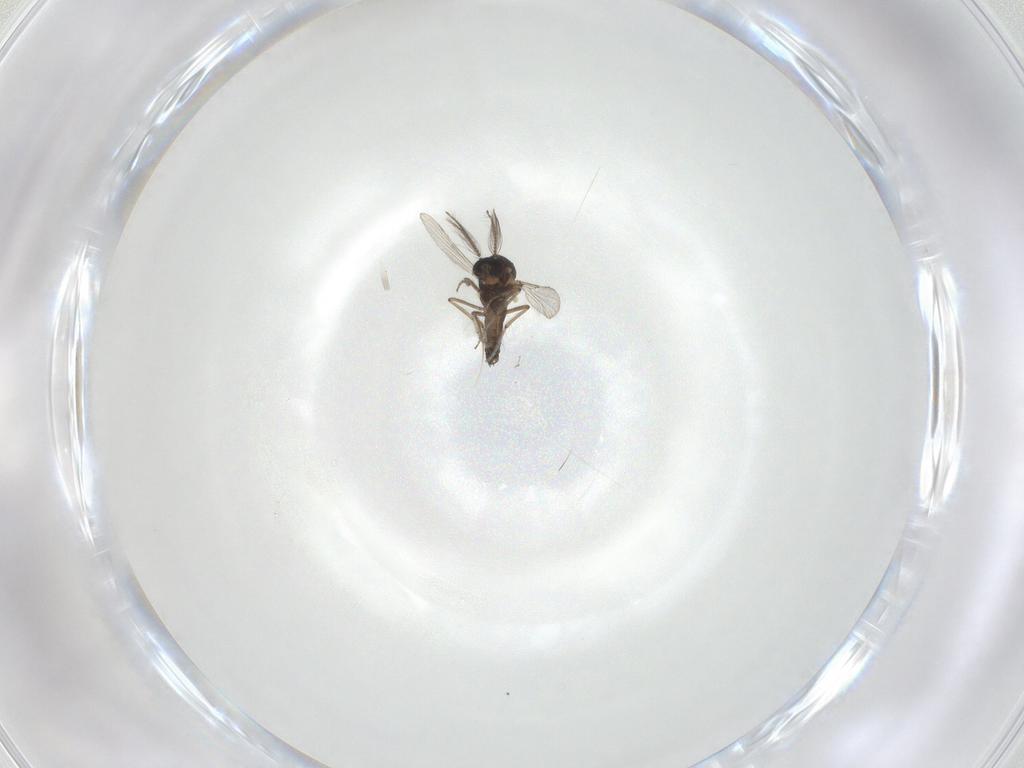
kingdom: Animalia
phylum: Arthropoda
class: Insecta
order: Diptera
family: Ceratopogonidae
